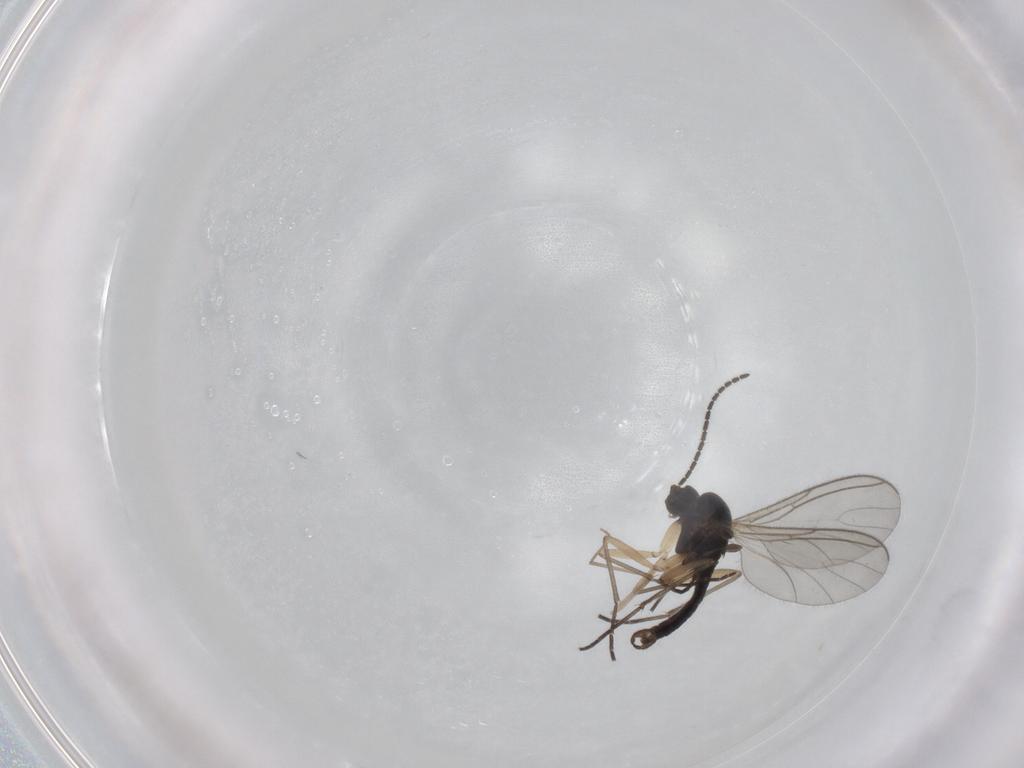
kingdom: Animalia
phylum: Arthropoda
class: Insecta
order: Diptera
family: Sciaridae
